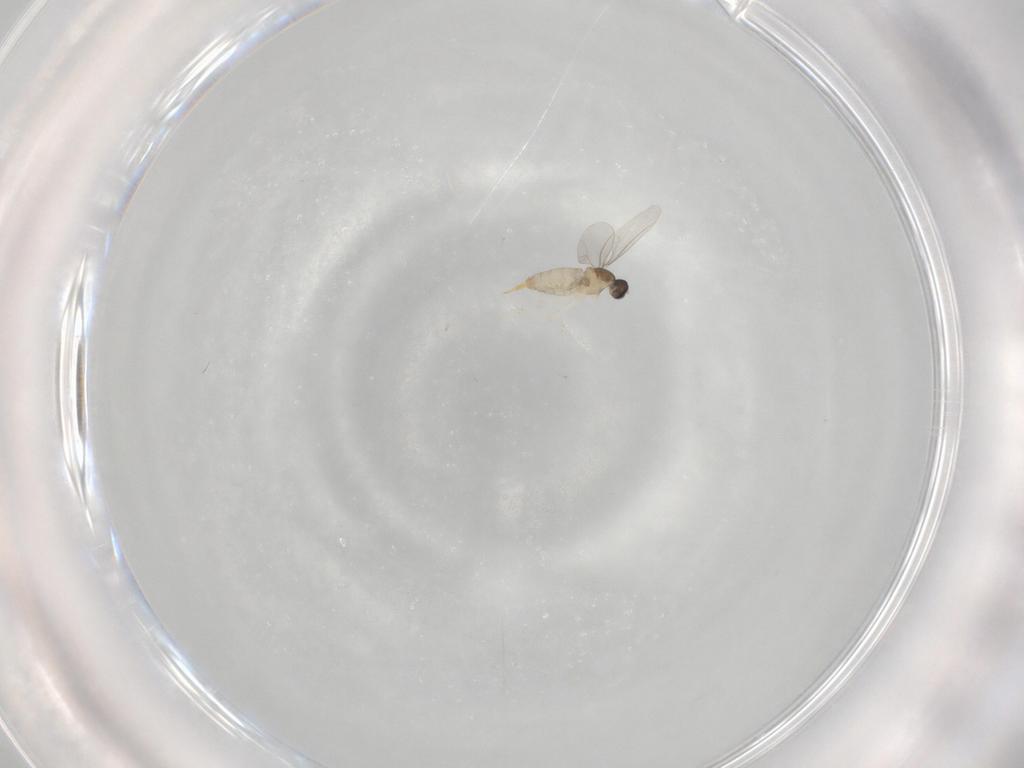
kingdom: Animalia
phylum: Arthropoda
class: Insecta
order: Diptera
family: Cecidomyiidae
